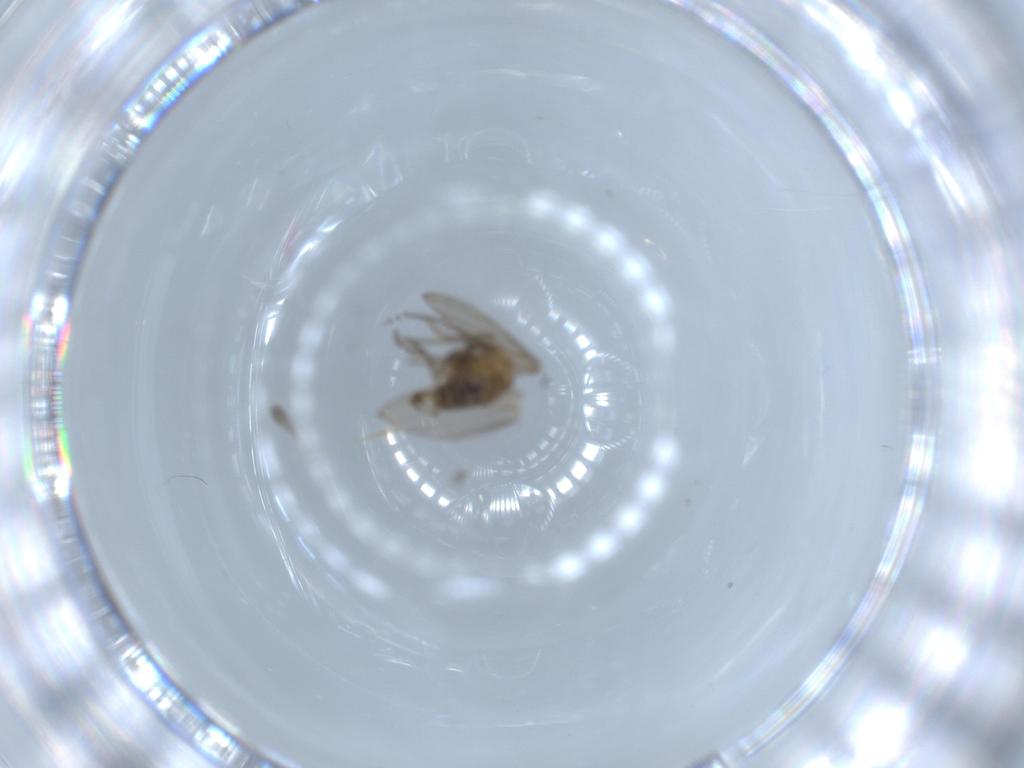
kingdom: Animalia
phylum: Arthropoda
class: Insecta
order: Diptera
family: Psychodidae
